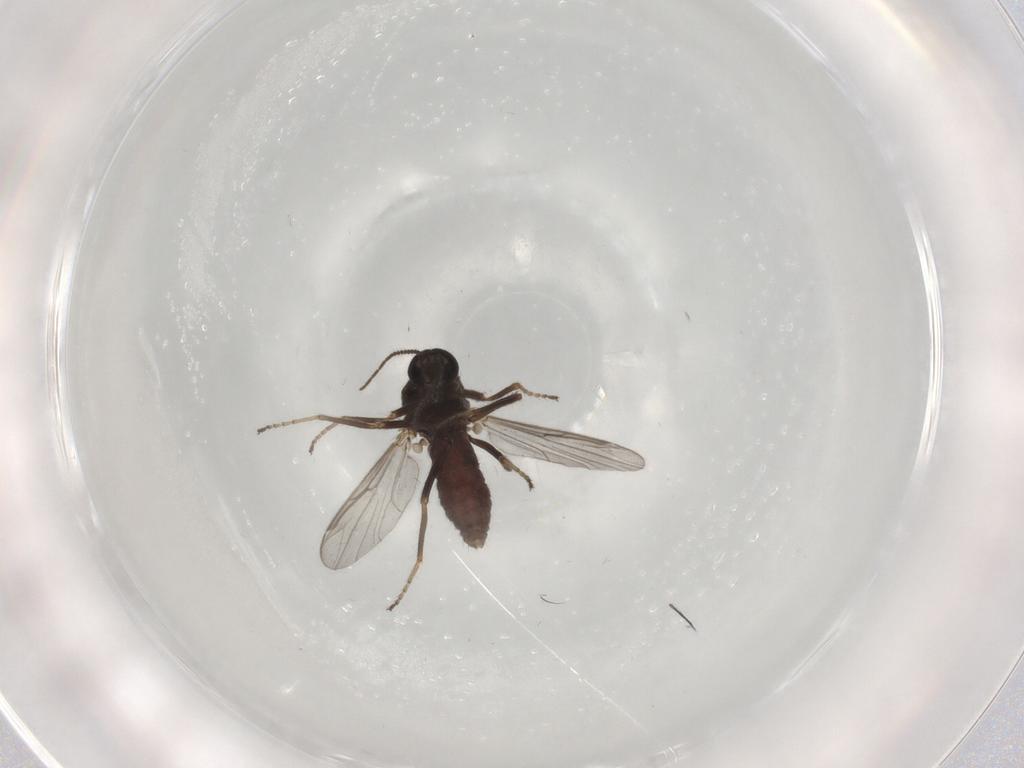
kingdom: Animalia
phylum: Arthropoda
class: Insecta
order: Diptera
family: Ceratopogonidae
